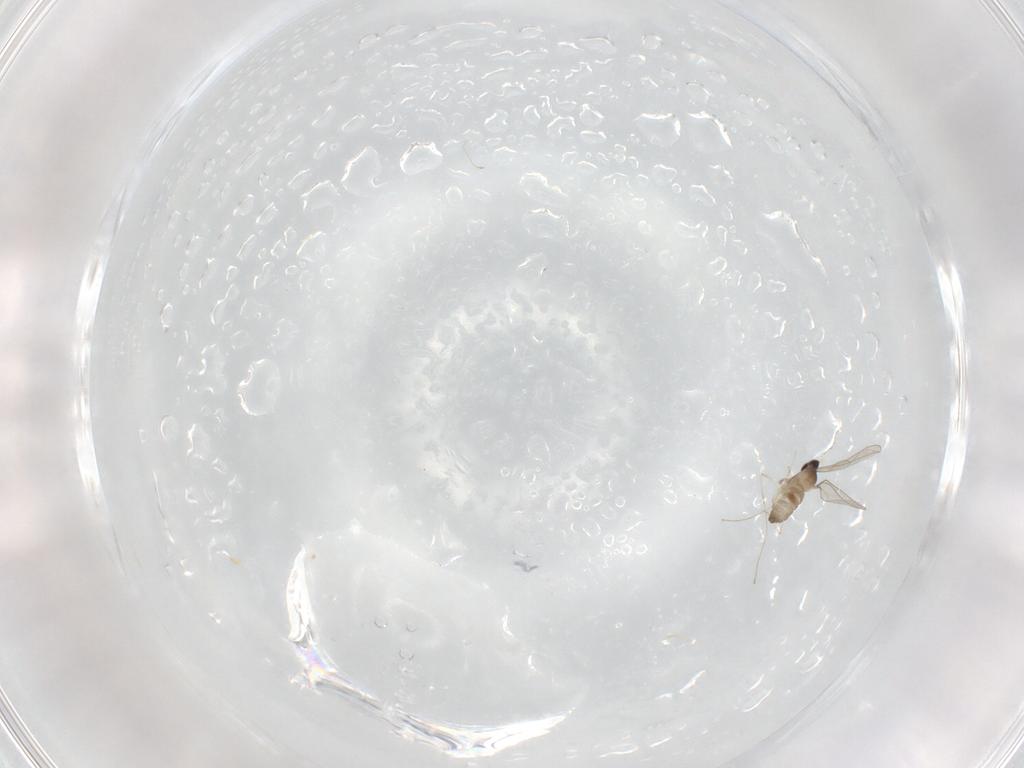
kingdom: Animalia
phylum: Arthropoda
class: Insecta
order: Diptera
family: Cecidomyiidae
